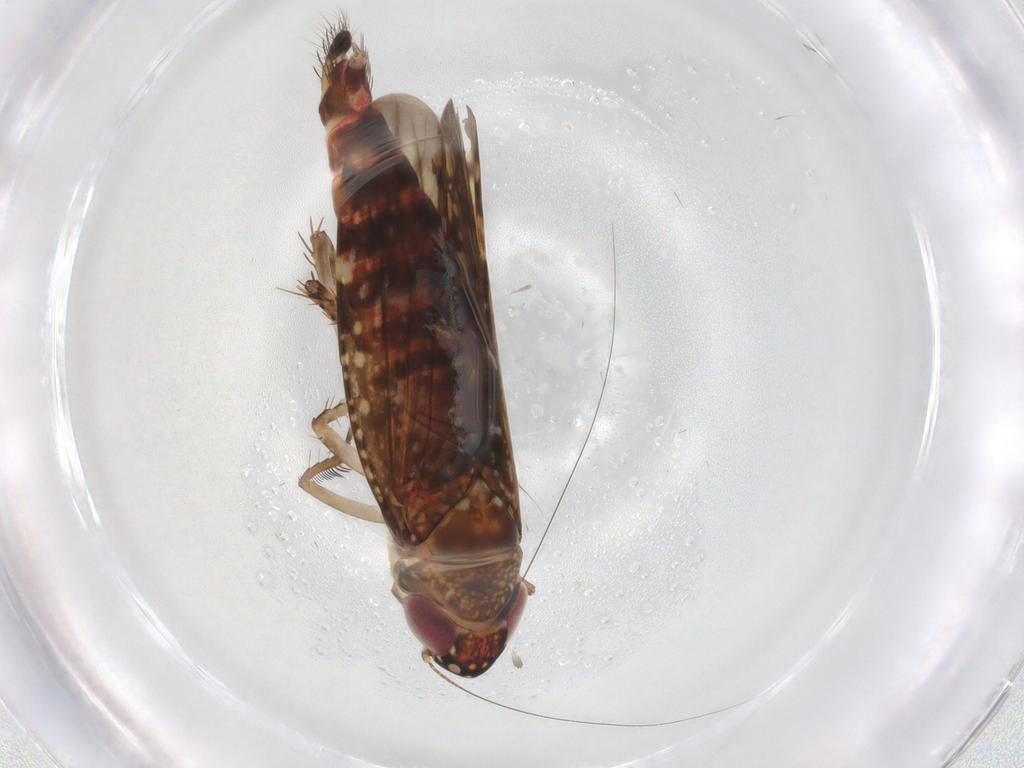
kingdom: Animalia
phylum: Arthropoda
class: Insecta
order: Hemiptera
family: Cicadellidae
